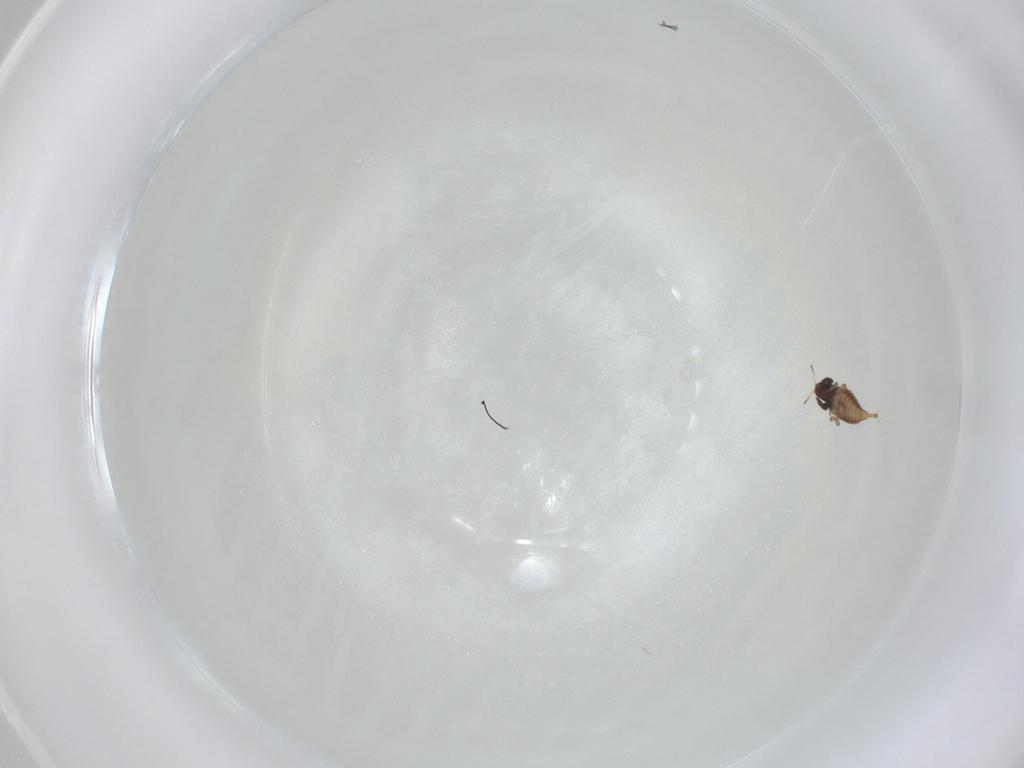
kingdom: Animalia
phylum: Arthropoda
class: Insecta
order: Thysanoptera
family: Phlaeothripidae
